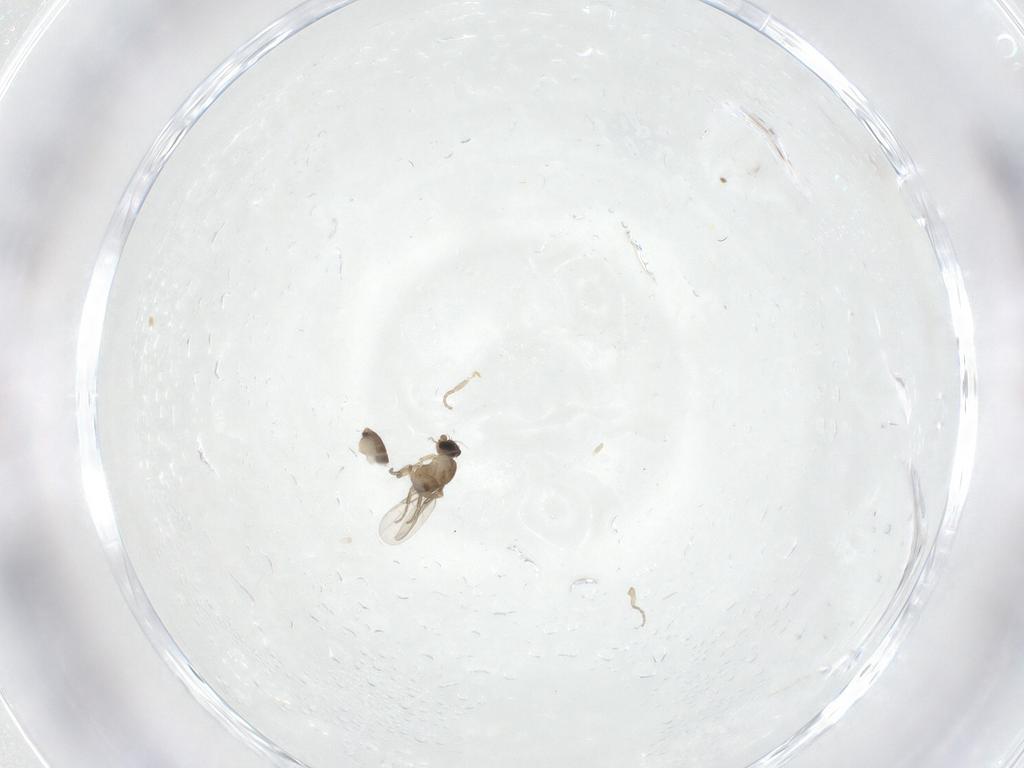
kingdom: Animalia
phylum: Arthropoda
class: Insecta
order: Diptera
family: Phoridae
